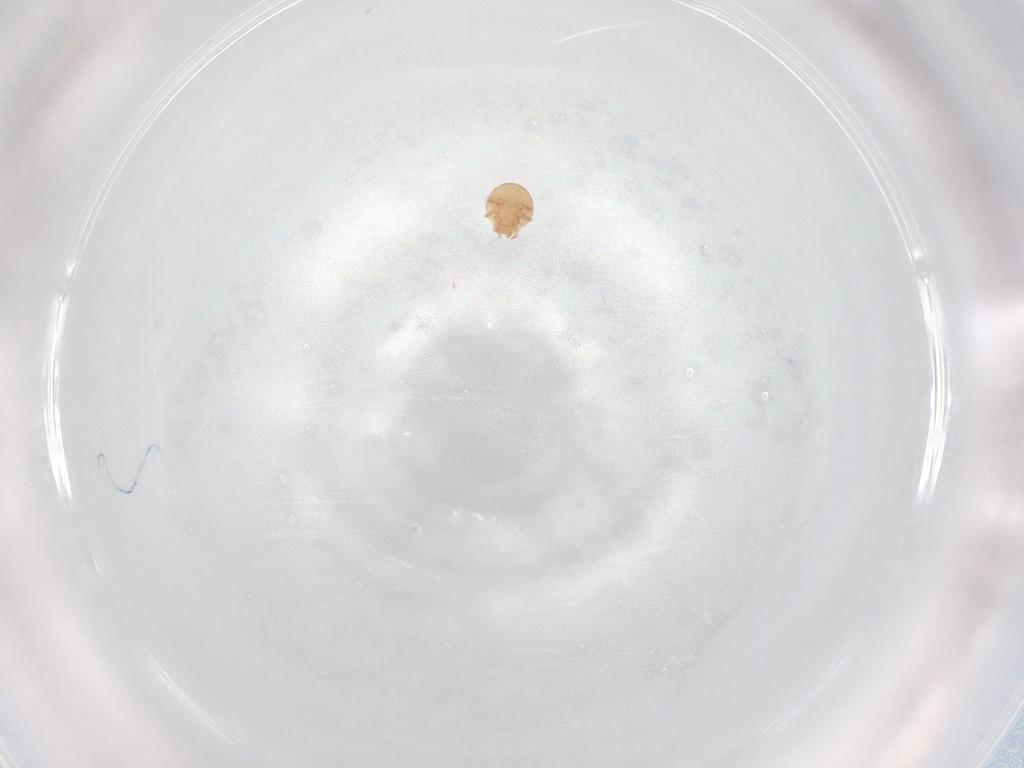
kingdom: Animalia
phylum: Arthropoda
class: Arachnida
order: Mesostigmata
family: Trematuridae
